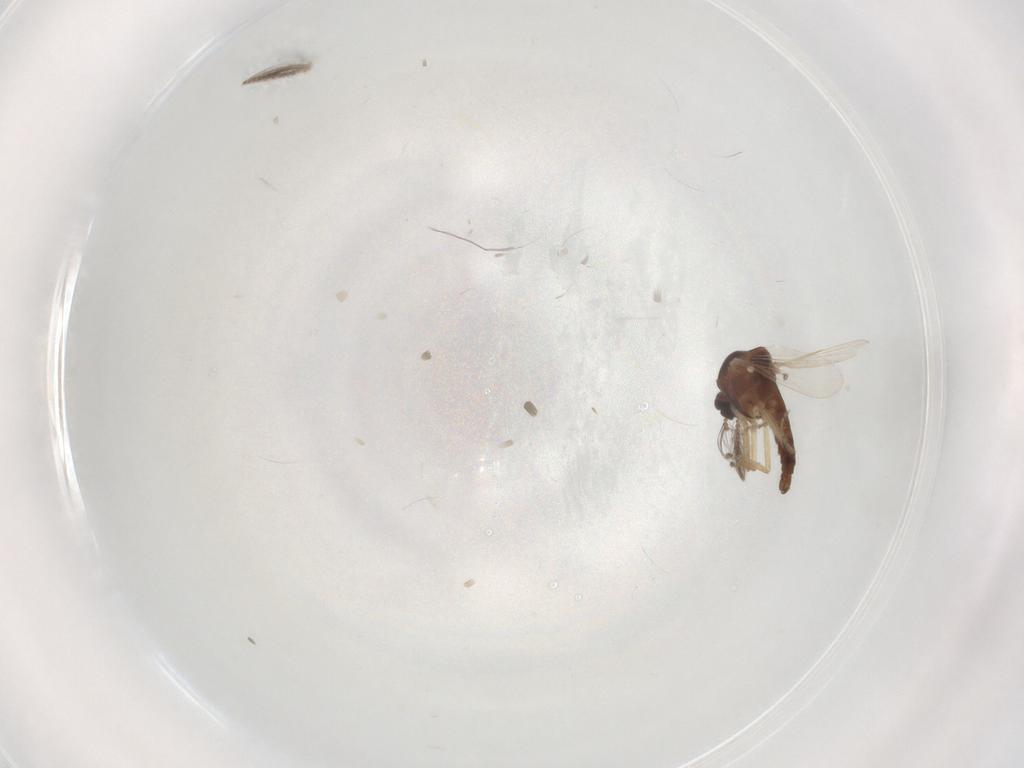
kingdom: Animalia
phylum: Arthropoda
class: Insecta
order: Diptera
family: Ceratopogonidae
